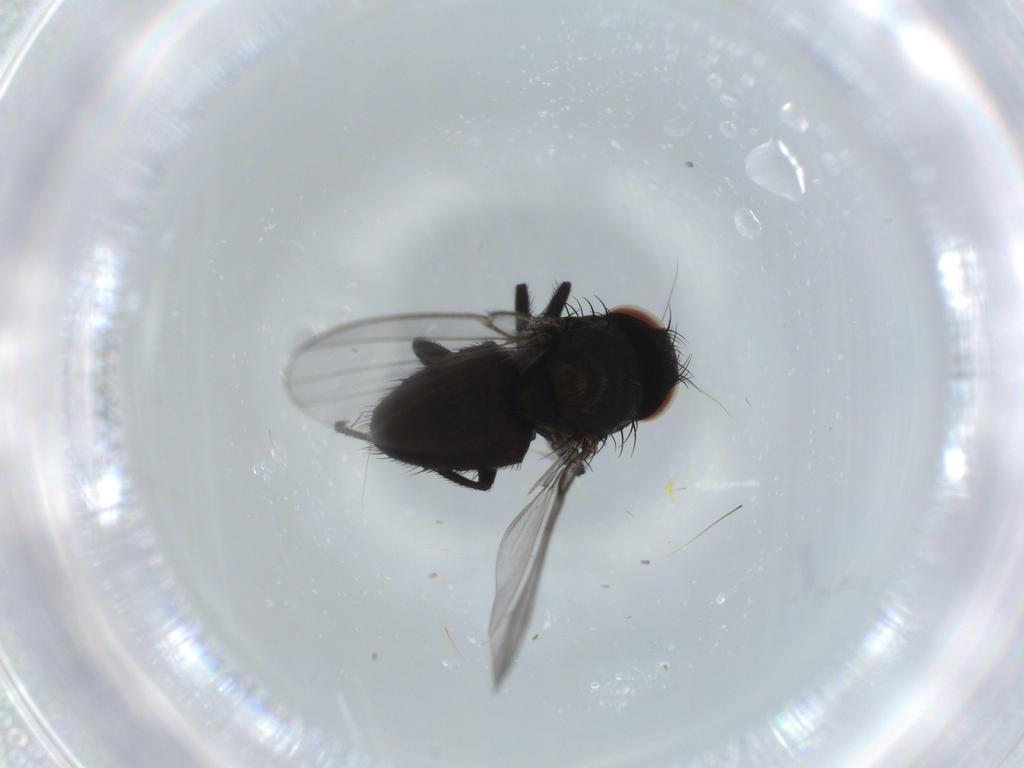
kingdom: Animalia
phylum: Arthropoda
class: Insecta
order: Diptera
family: Milichiidae
